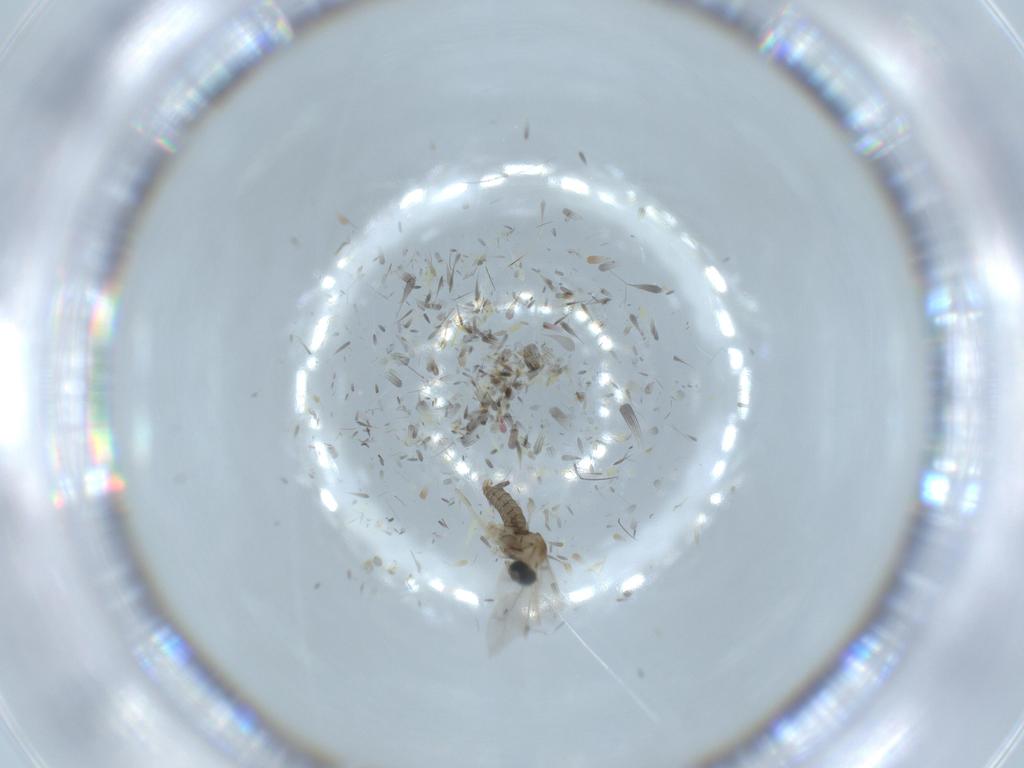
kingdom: Animalia
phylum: Arthropoda
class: Insecta
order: Diptera
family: Cecidomyiidae
